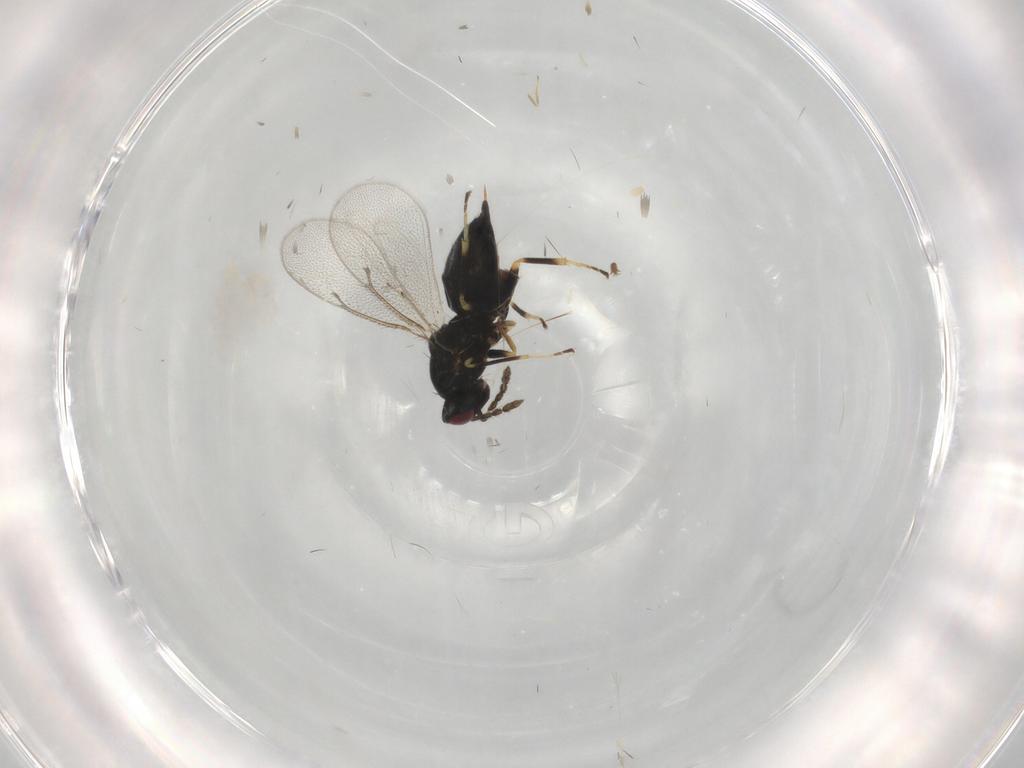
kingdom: Animalia
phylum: Arthropoda
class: Insecta
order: Hymenoptera
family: Ichneumonidae
